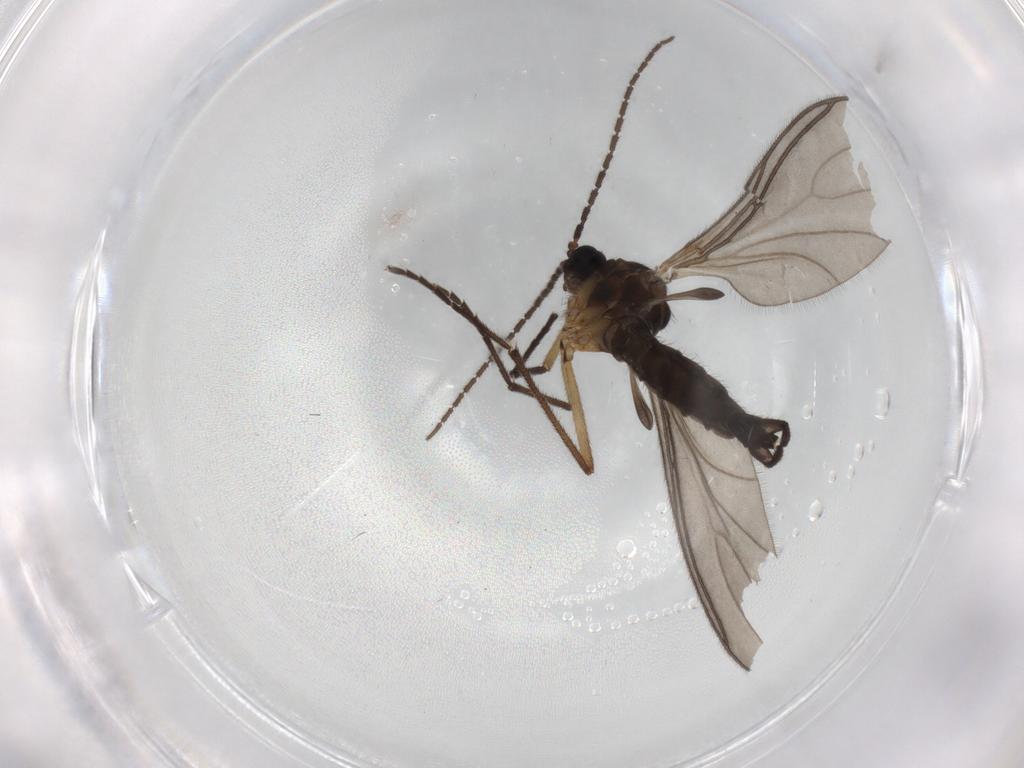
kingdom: Animalia
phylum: Arthropoda
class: Insecta
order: Diptera
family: Sciaridae
